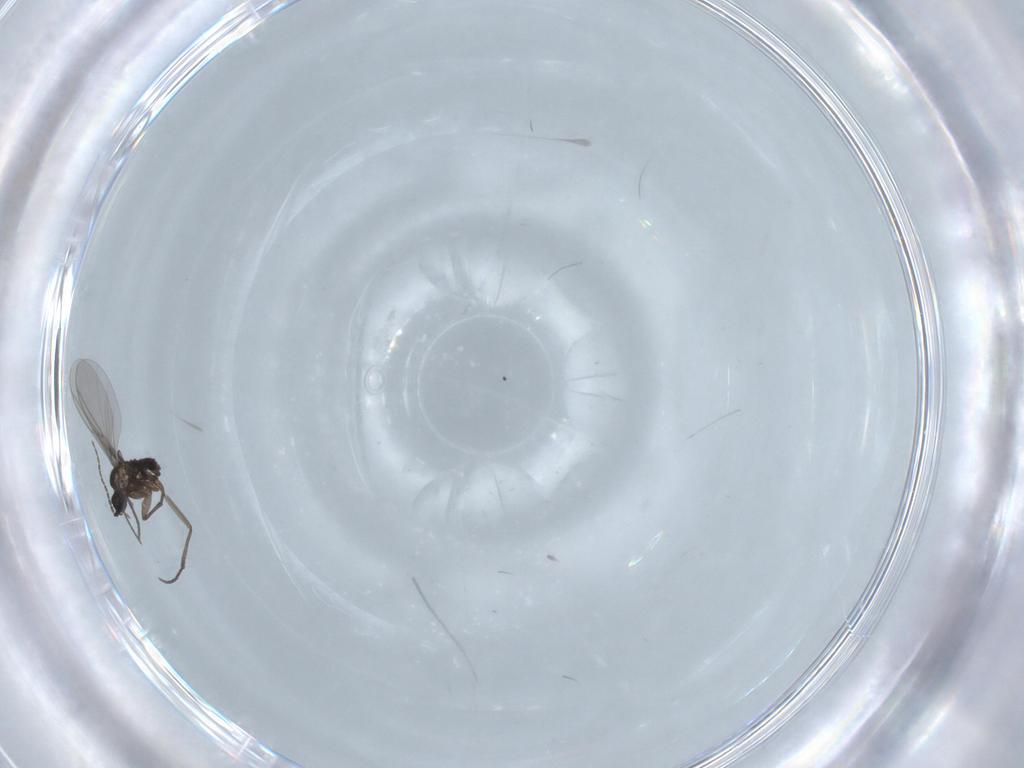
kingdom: Animalia
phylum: Arthropoda
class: Insecta
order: Diptera
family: Sciaridae
